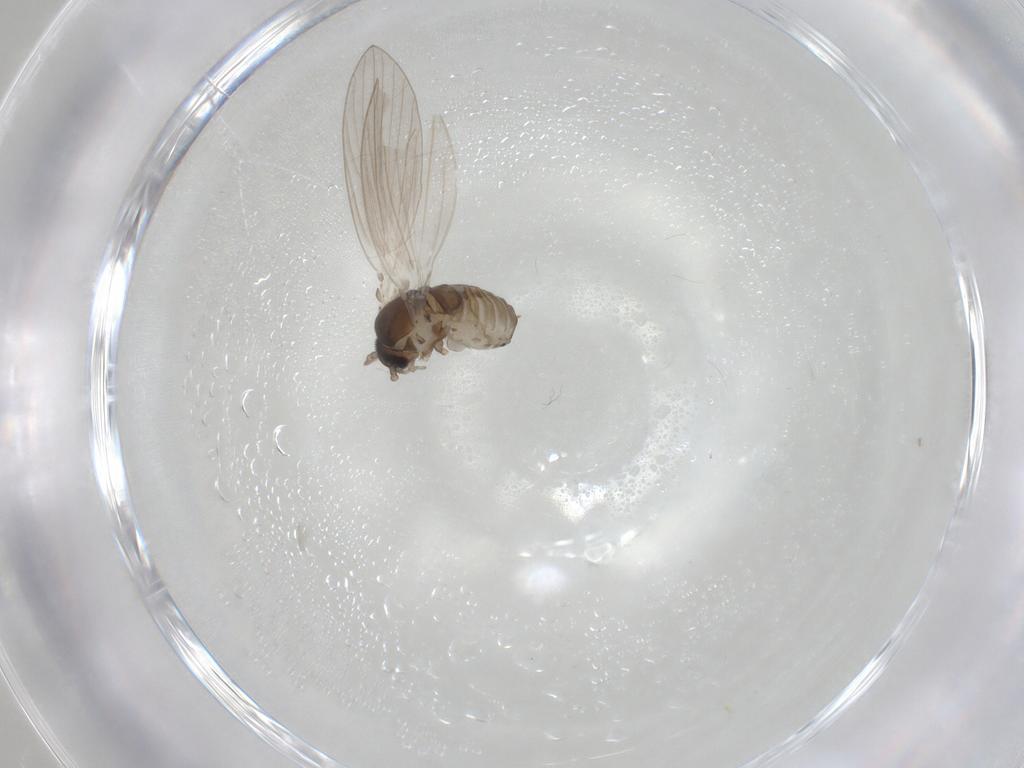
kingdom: Animalia
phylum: Arthropoda
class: Insecta
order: Diptera
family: Psychodidae
